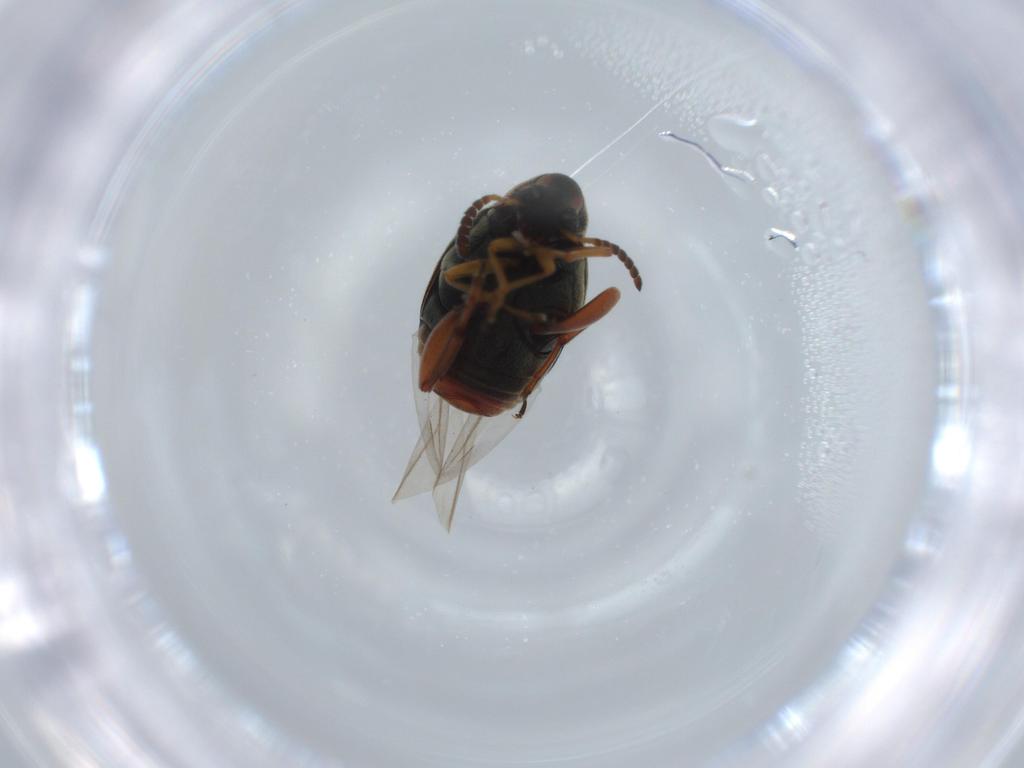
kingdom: Animalia
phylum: Arthropoda
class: Insecta
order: Coleoptera
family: Chrysomelidae
